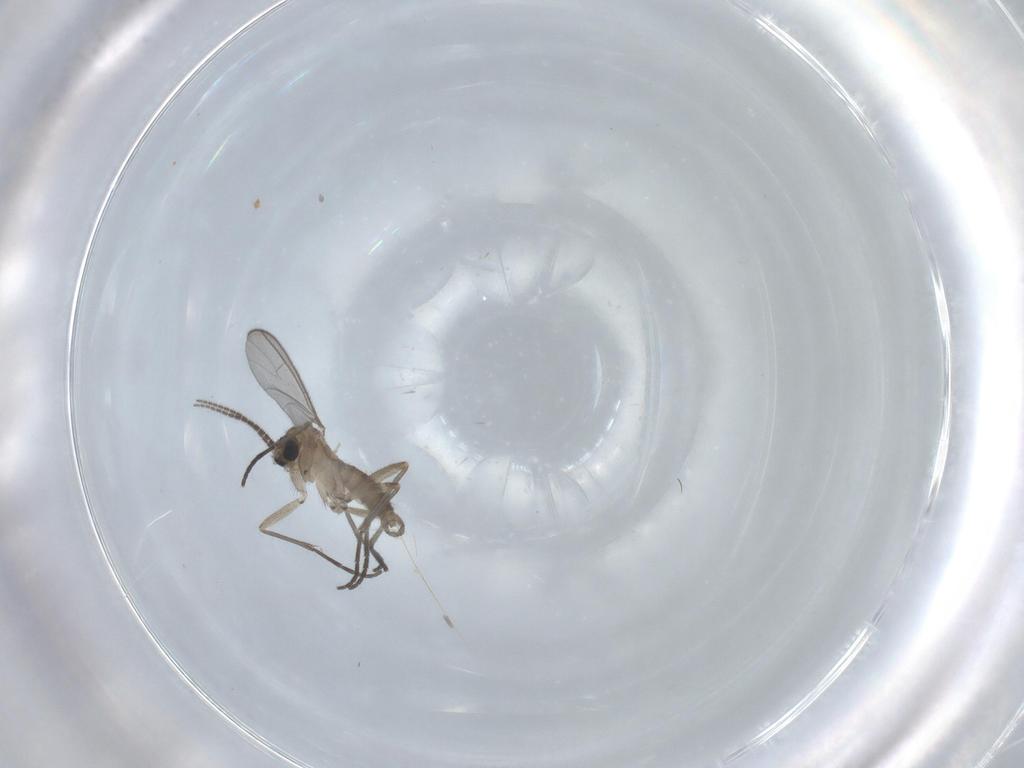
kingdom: Animalia
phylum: Arthropoda
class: Insecta
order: Diptera
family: Sciaridae
